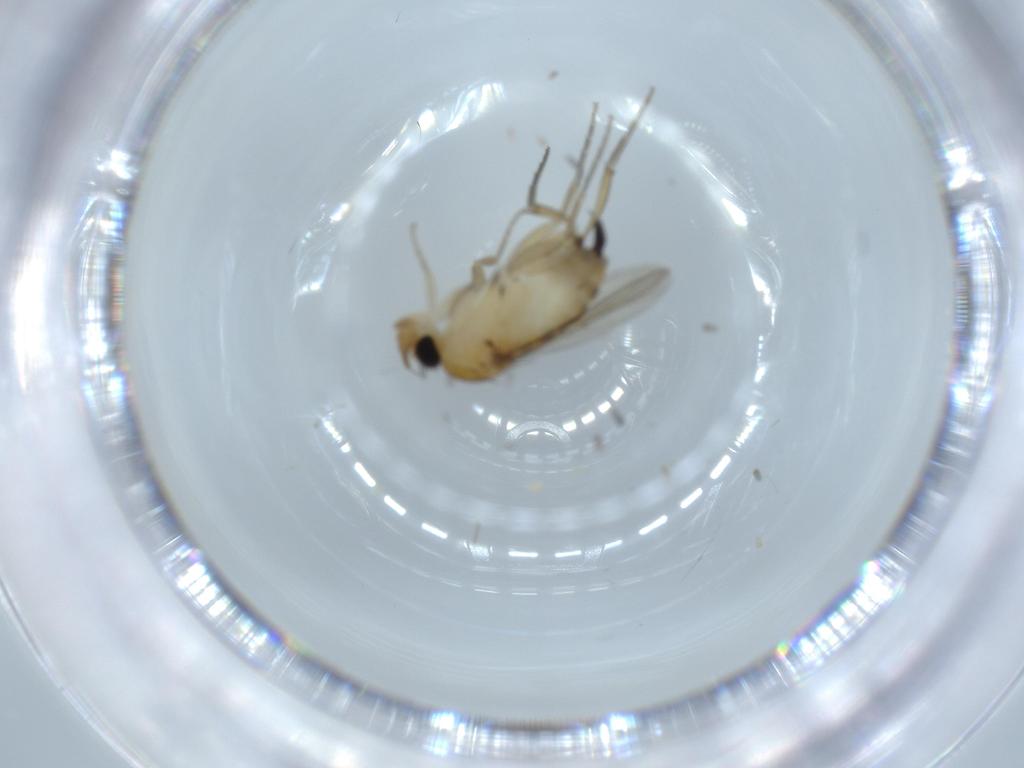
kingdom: Animalia
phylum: Arthropoda
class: Insecta
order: Diptera
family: Phoridae
